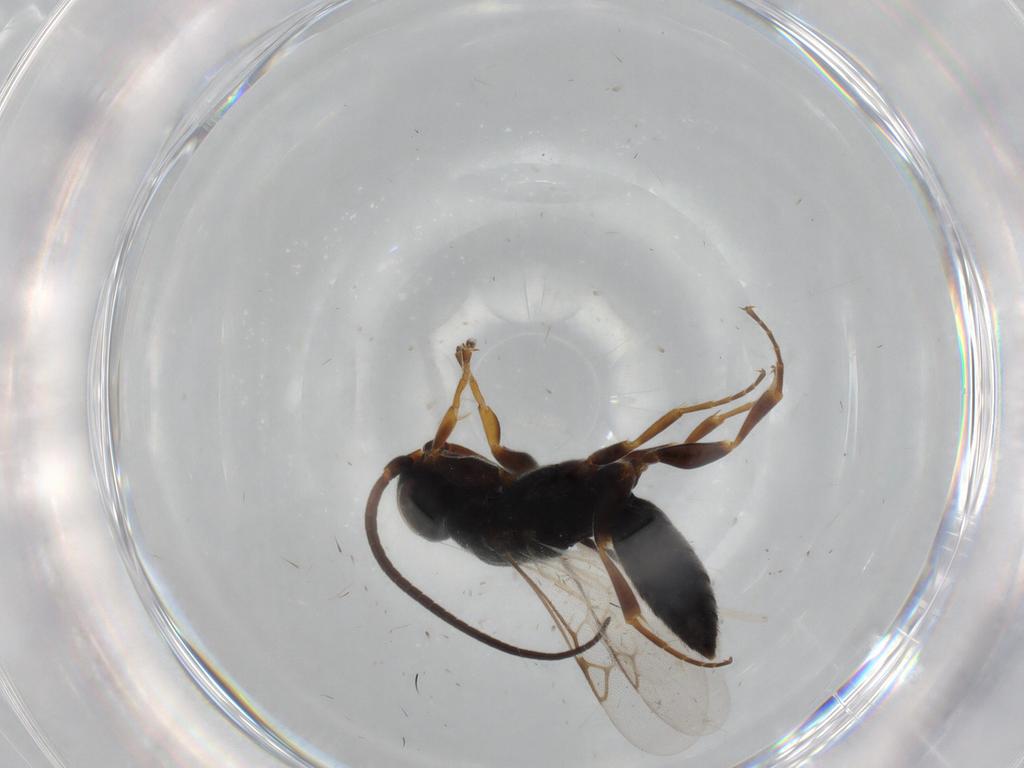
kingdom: Animalia
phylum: Arthropoda
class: Insecta
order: Hymenoptera
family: Sclerogibbidae
